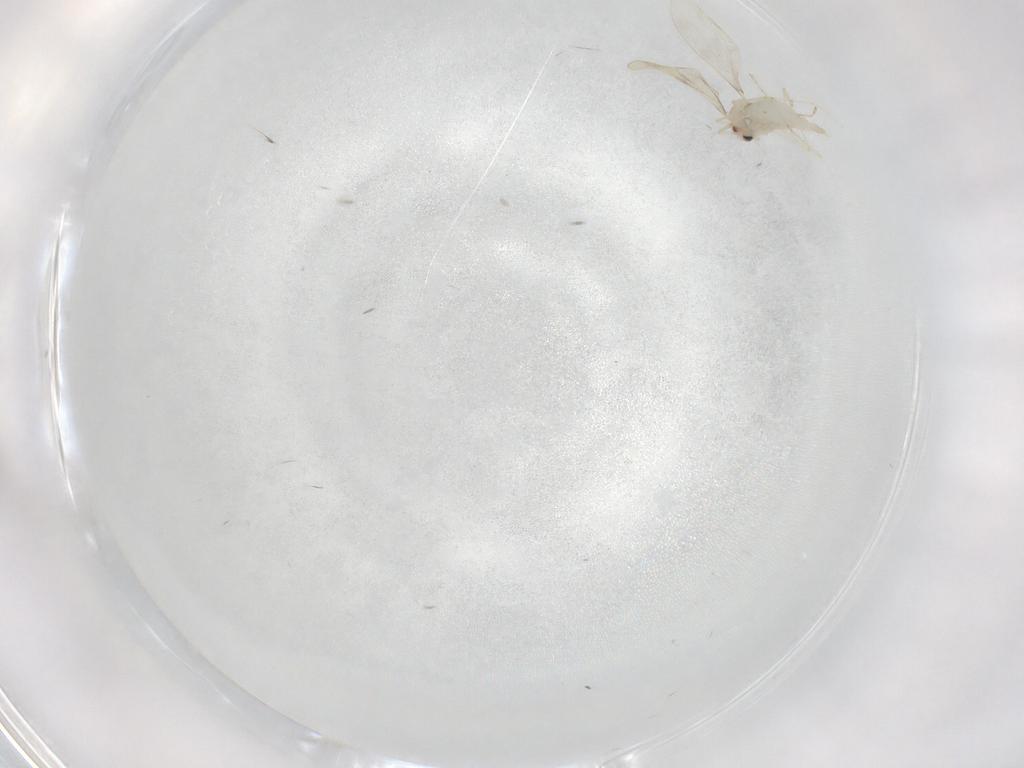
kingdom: Animalia
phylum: Arthropoda
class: Insecta
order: Diptera
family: Cecidomyiidae
